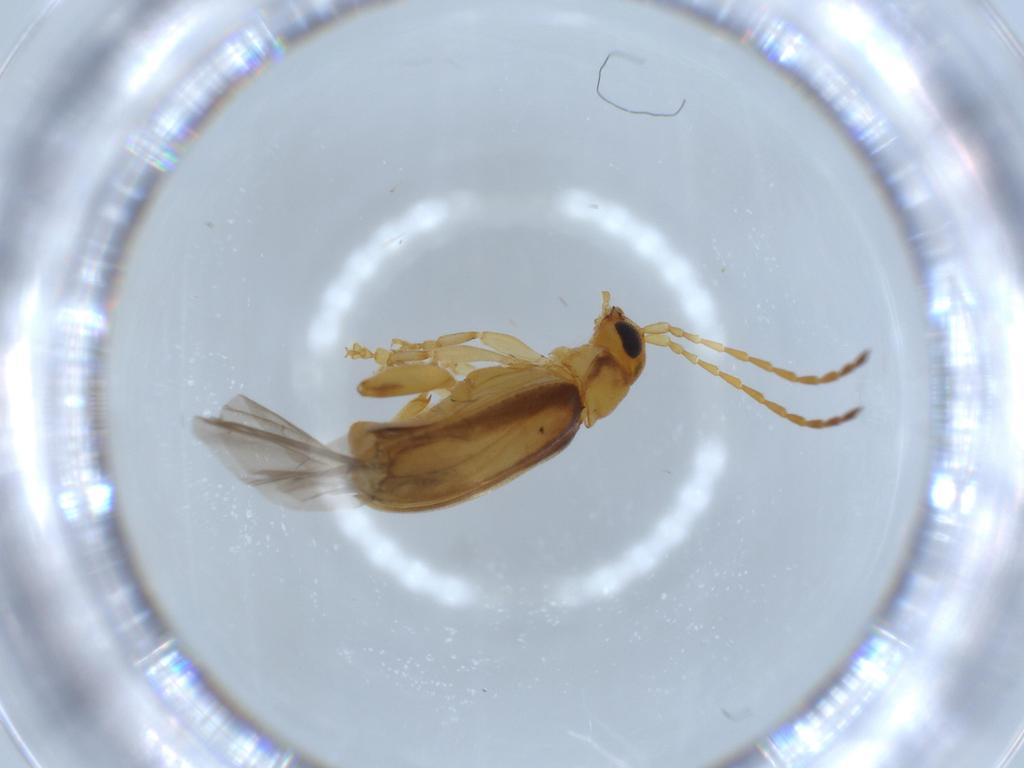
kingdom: Animalia
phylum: Arthropoda
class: Insecta
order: Coleoptera
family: Aderidae
